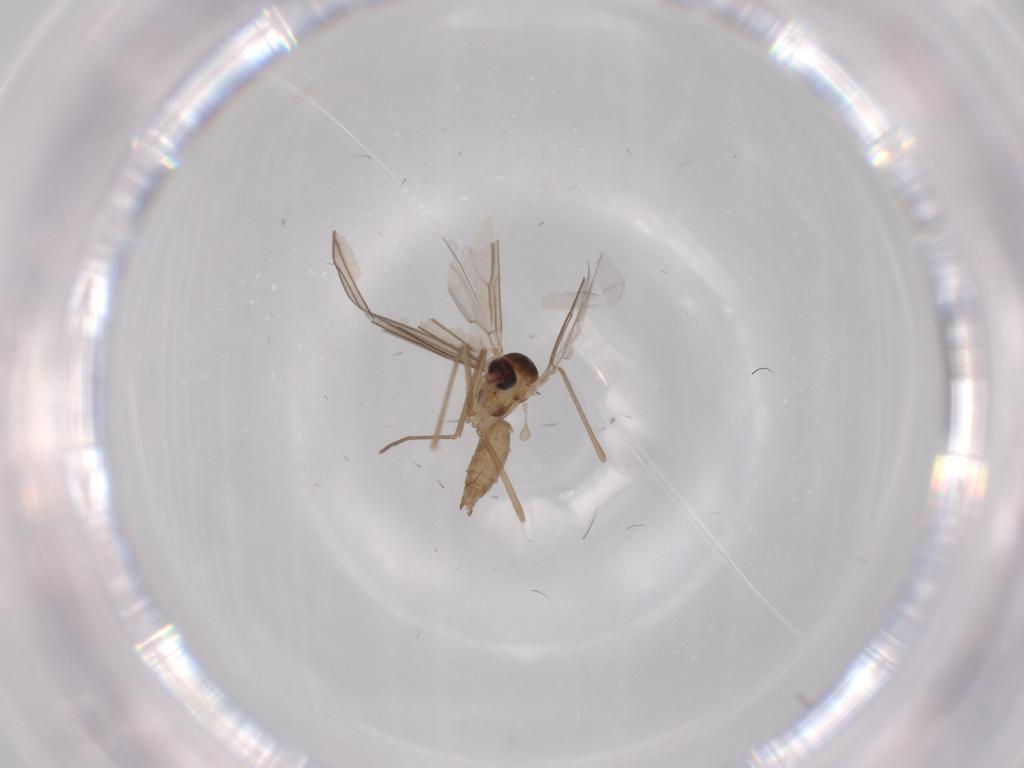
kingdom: Animalia
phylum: Arthropoda
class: Insecta
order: Diptera
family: Cecidomyiidae
